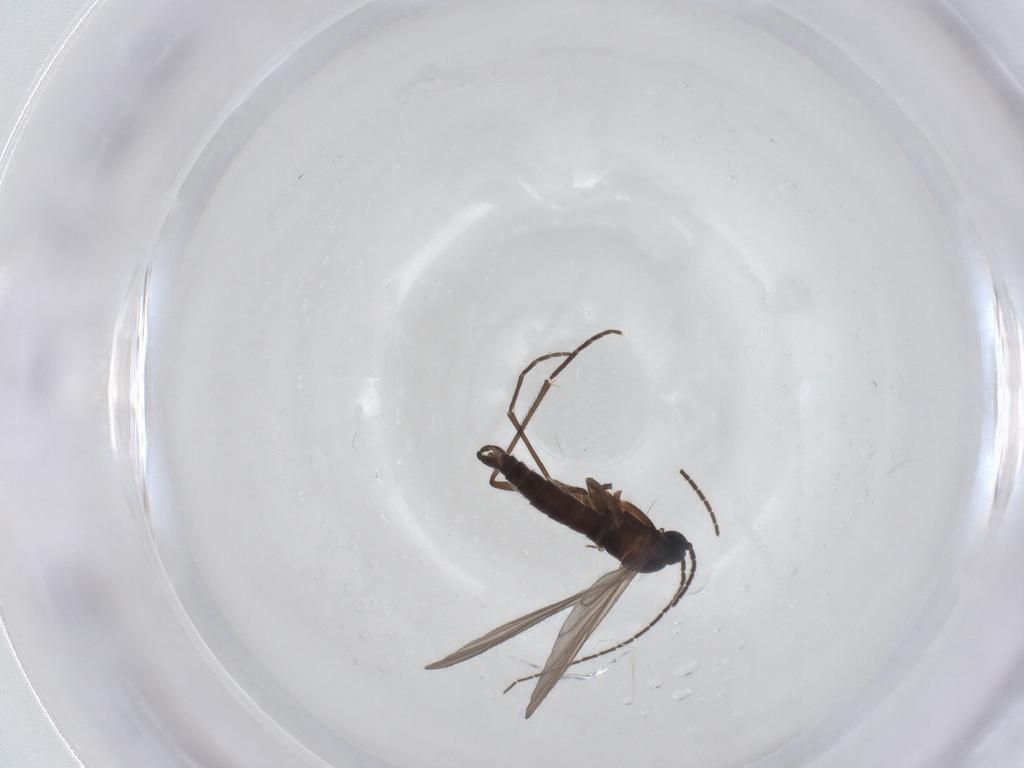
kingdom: Animalia
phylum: Arthropoda
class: Insecta
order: Diptera
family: Sciaridae
